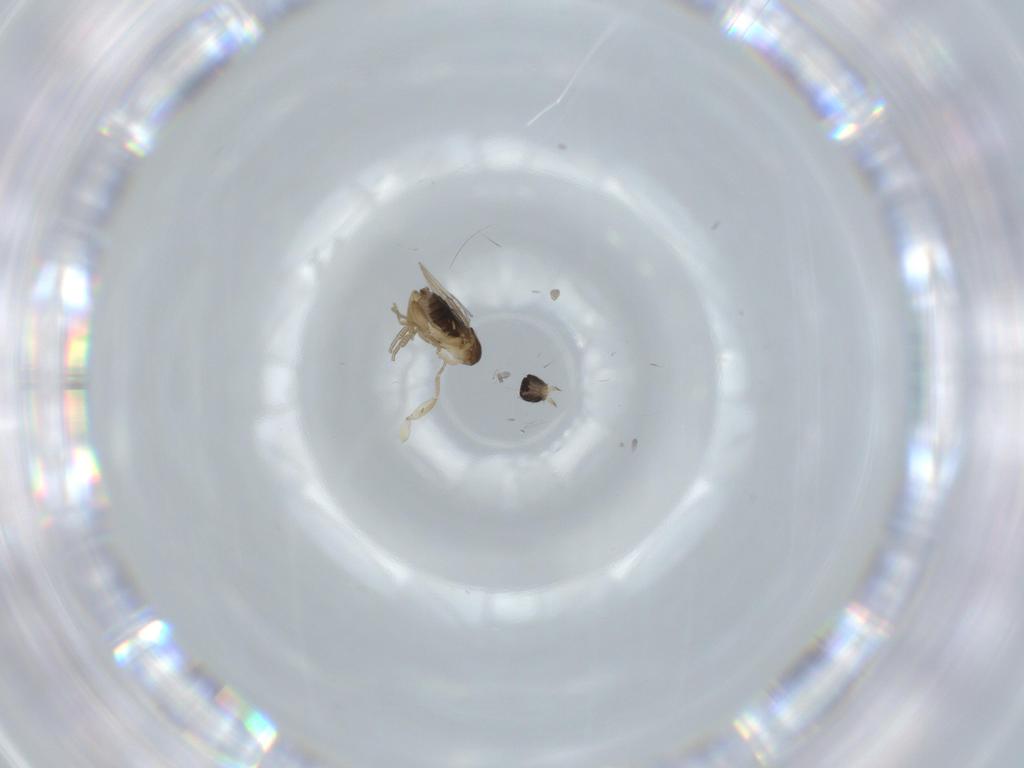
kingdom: Animalia
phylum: Arthropoda
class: Insecta
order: Diptera
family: Phoridae
